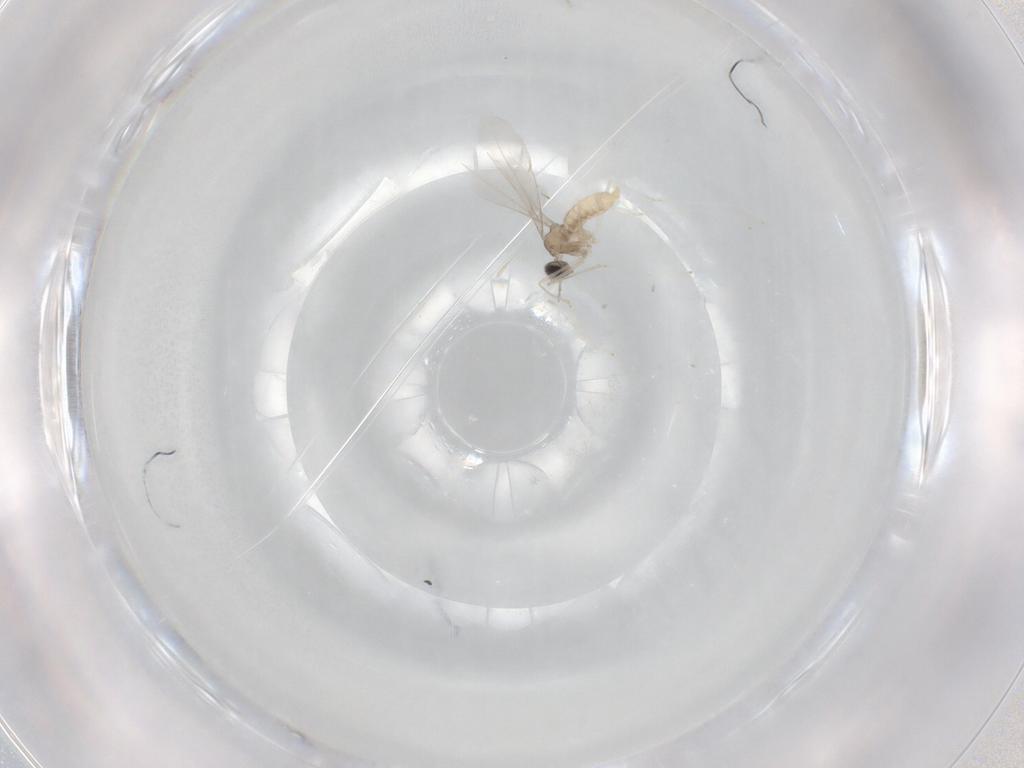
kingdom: Animalia
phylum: Arthropoda
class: Insecta
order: Diptera
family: Cecidomyiidae
